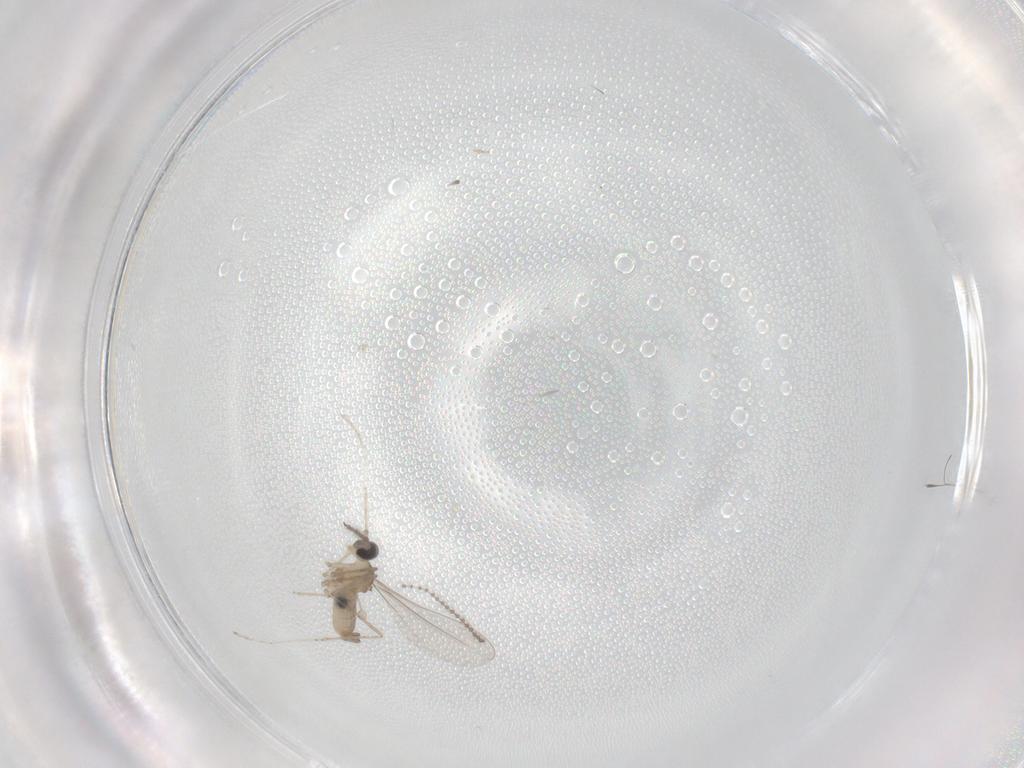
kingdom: Animalia
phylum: Arthropoda
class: Insecta
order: Diptera
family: Cecidomyiidae
